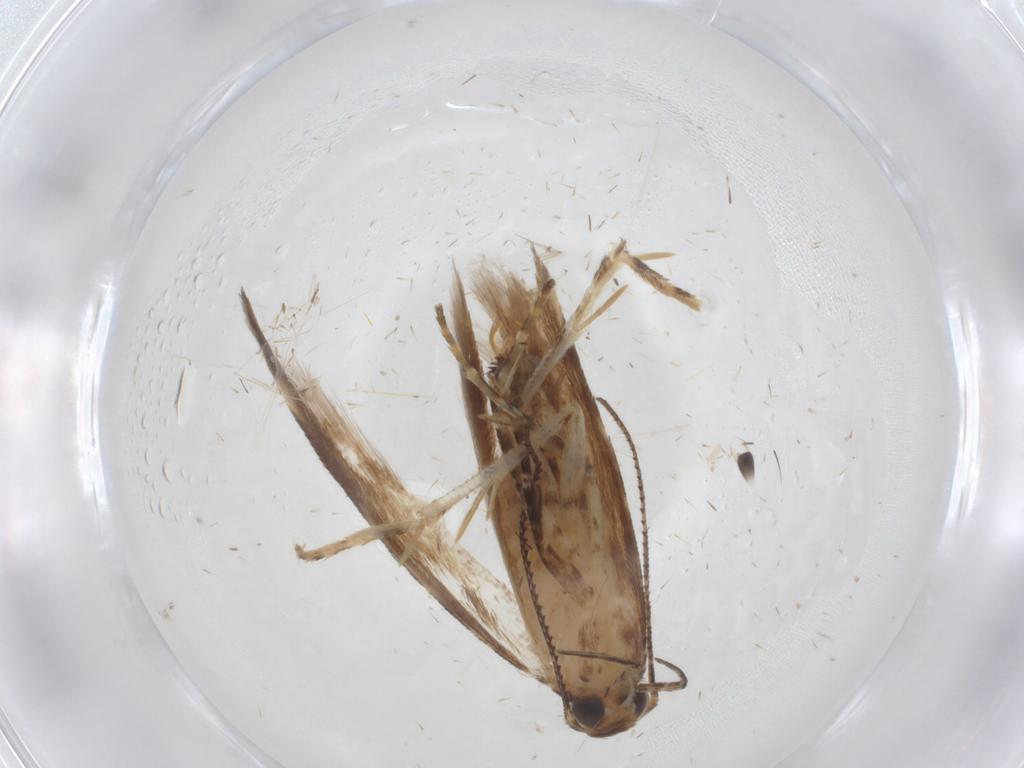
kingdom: Animalia
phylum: Arthropoda
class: Insecta
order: Lepidoptera
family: Gelechiidae
